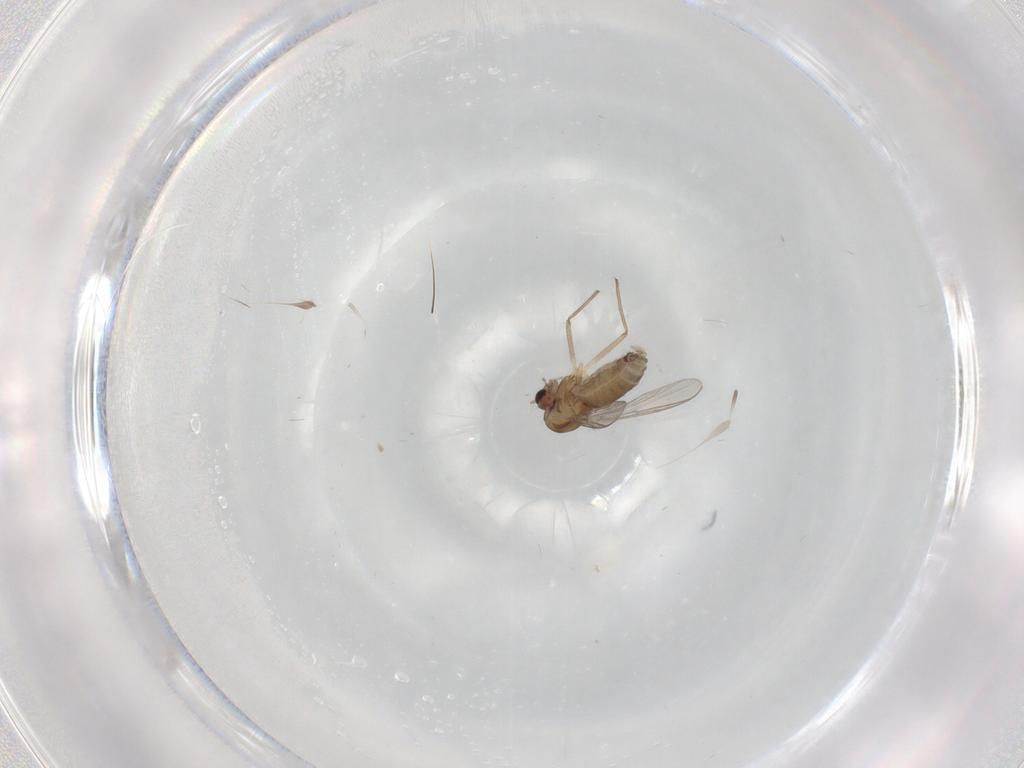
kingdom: Animalia
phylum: Arthropoda
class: Insecta
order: Diptera
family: Chironomidae
